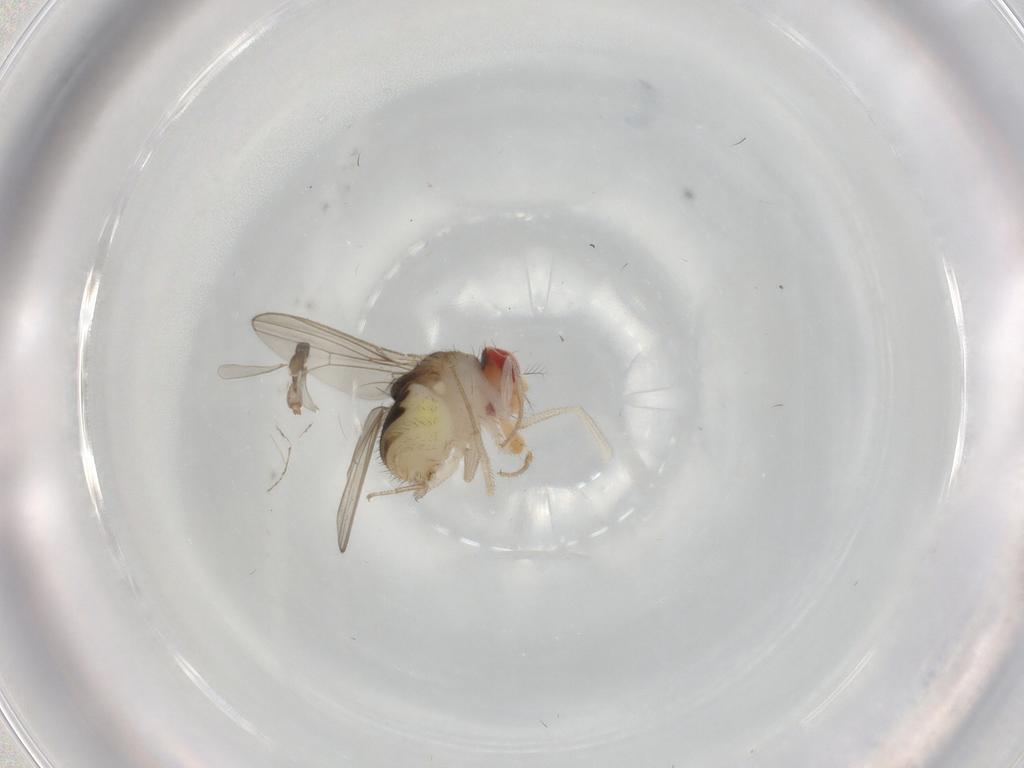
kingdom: Animalia
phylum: Arthropoda
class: Insecta
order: Diptera
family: Drosophilidae
